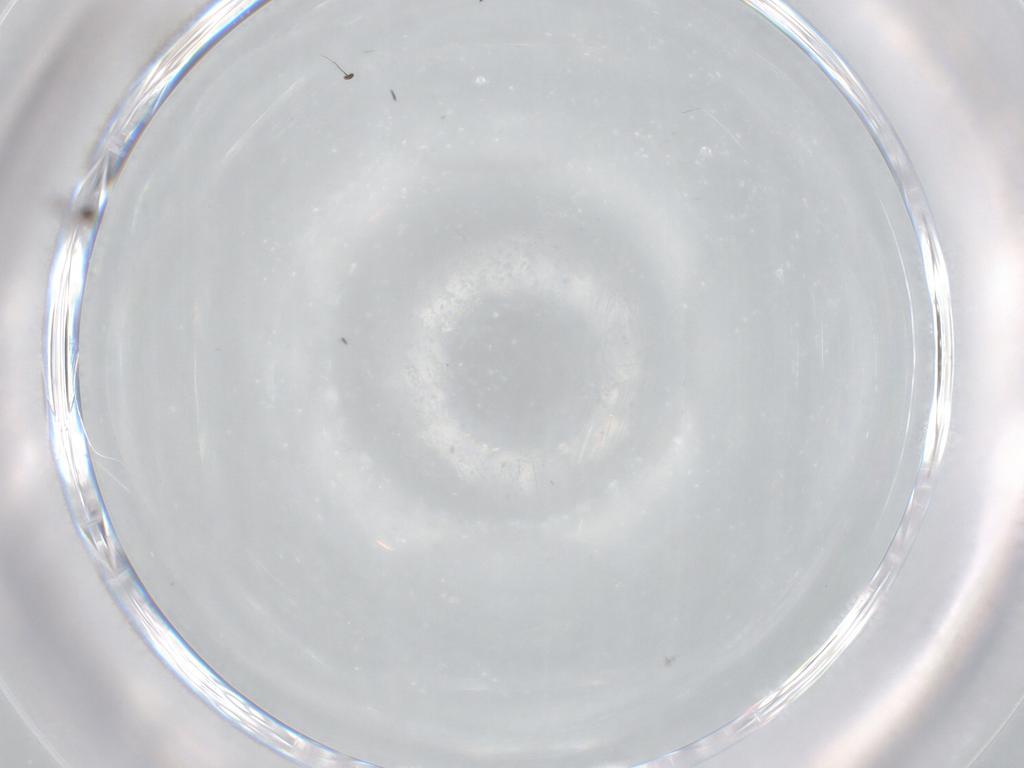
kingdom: Animalia
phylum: Arthropoda
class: Insecta
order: Diptera
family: Dolichopodidae
